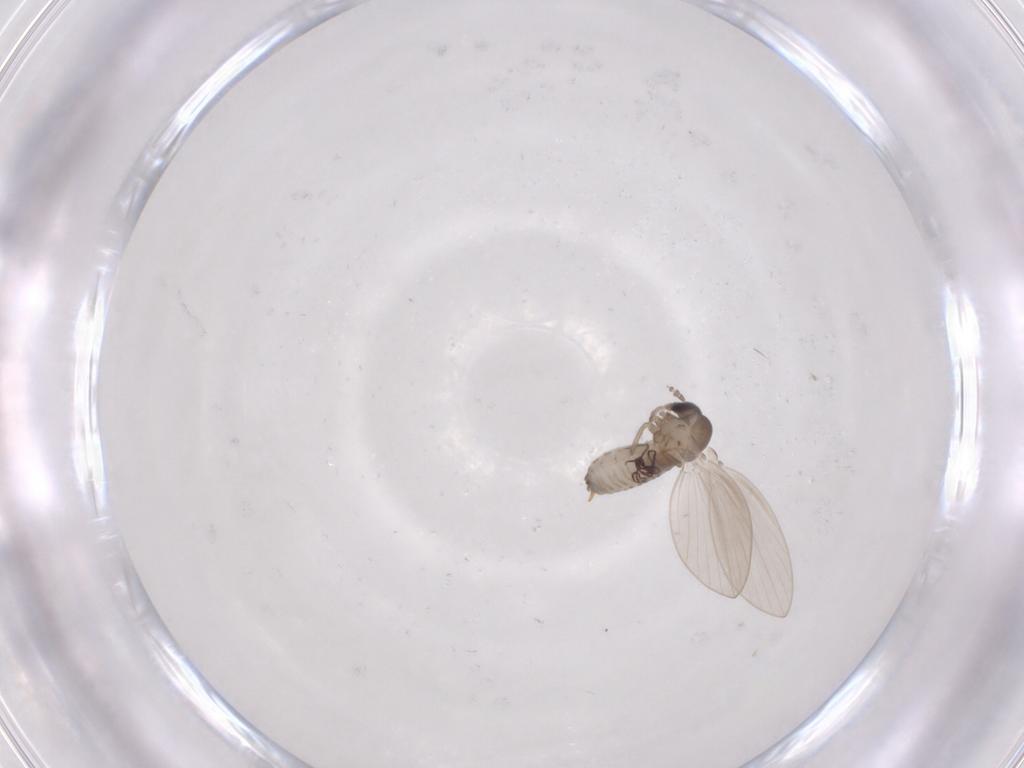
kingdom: Animalia
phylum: Arthropoda
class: Insecta
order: Diptera
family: Psychodidae
